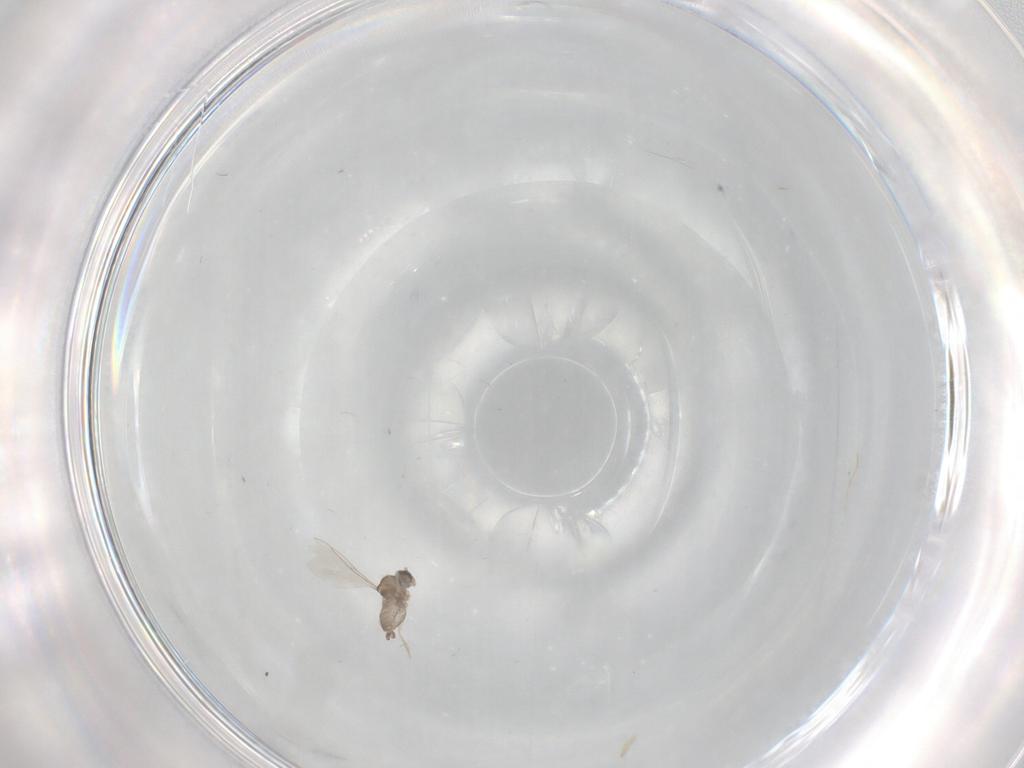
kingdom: Animalia
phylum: Arthropoda
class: Insecta
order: Diptera
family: Cecidomyiidae
